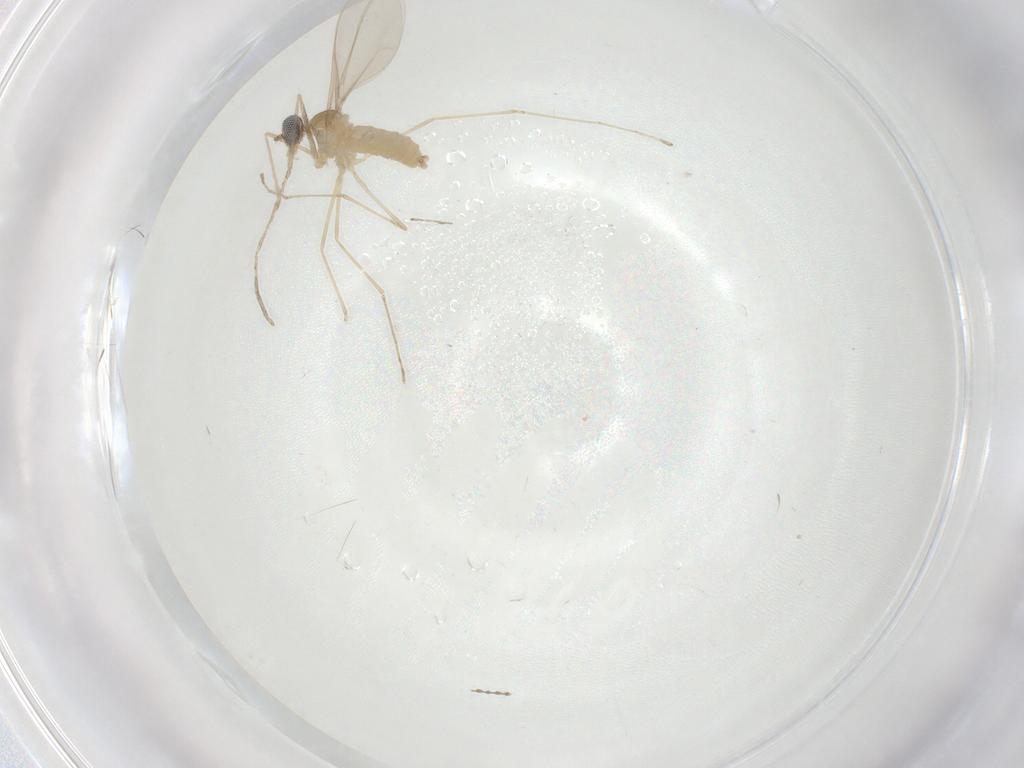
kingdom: Animalia
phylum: Arthropoda
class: Insecta
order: Diptera
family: Cecidomyiidae
